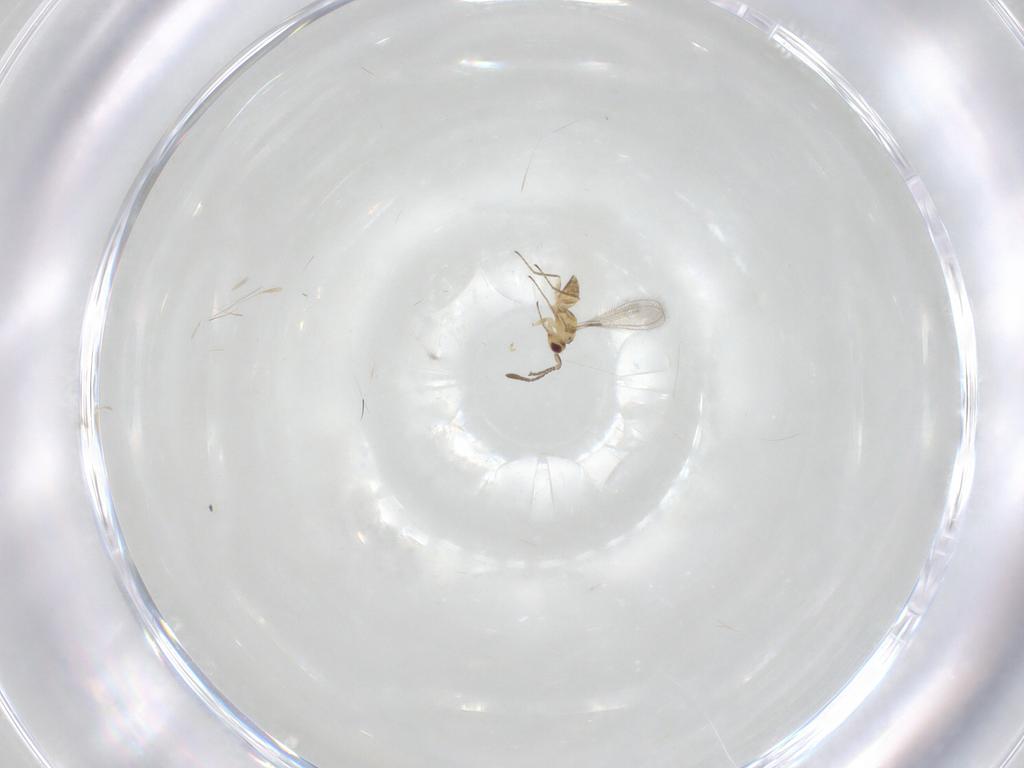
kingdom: Animalia
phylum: Arthropoda
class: Insecta
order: Hymenoptera
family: Mymaridae
